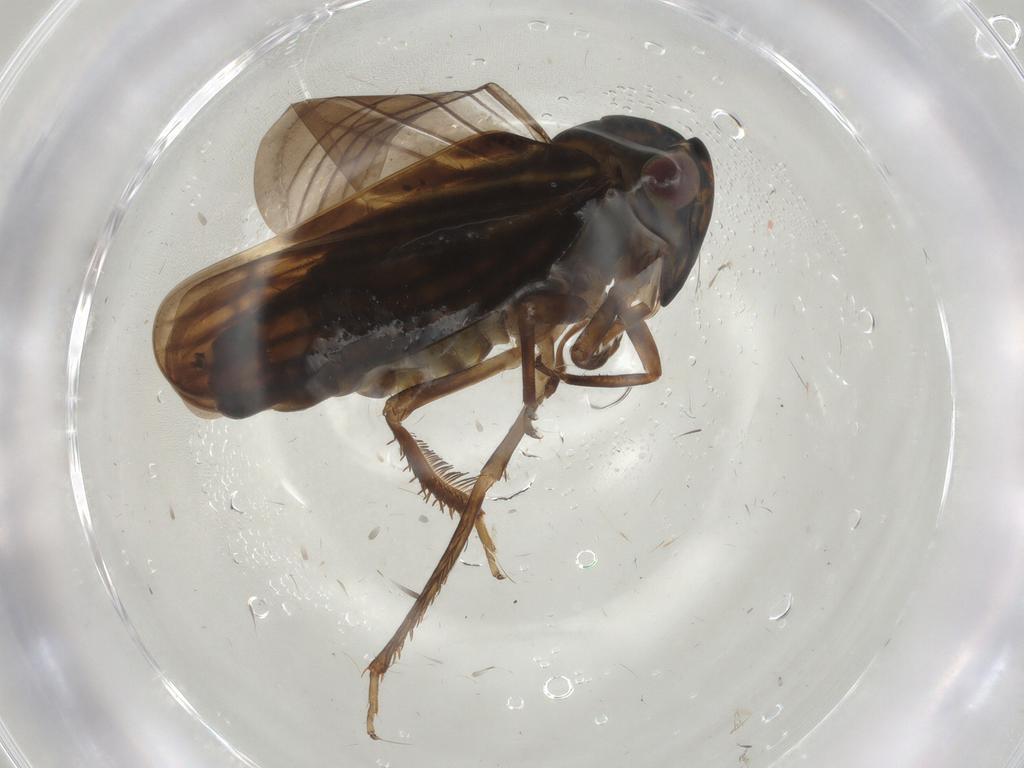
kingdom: Animalia
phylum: Arthropoda
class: Insecta
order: Hemiptera
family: Cicadellidae
